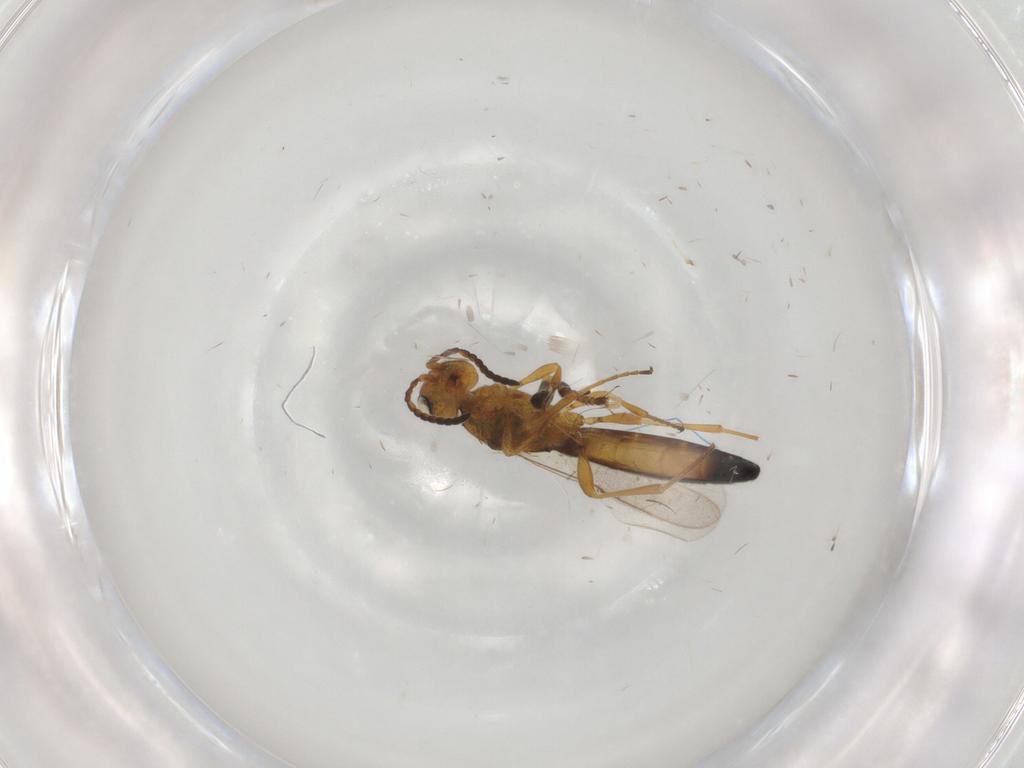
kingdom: Animalia
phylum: Arthropoda
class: Insecta
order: Hymenoptera
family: Scelionidae
